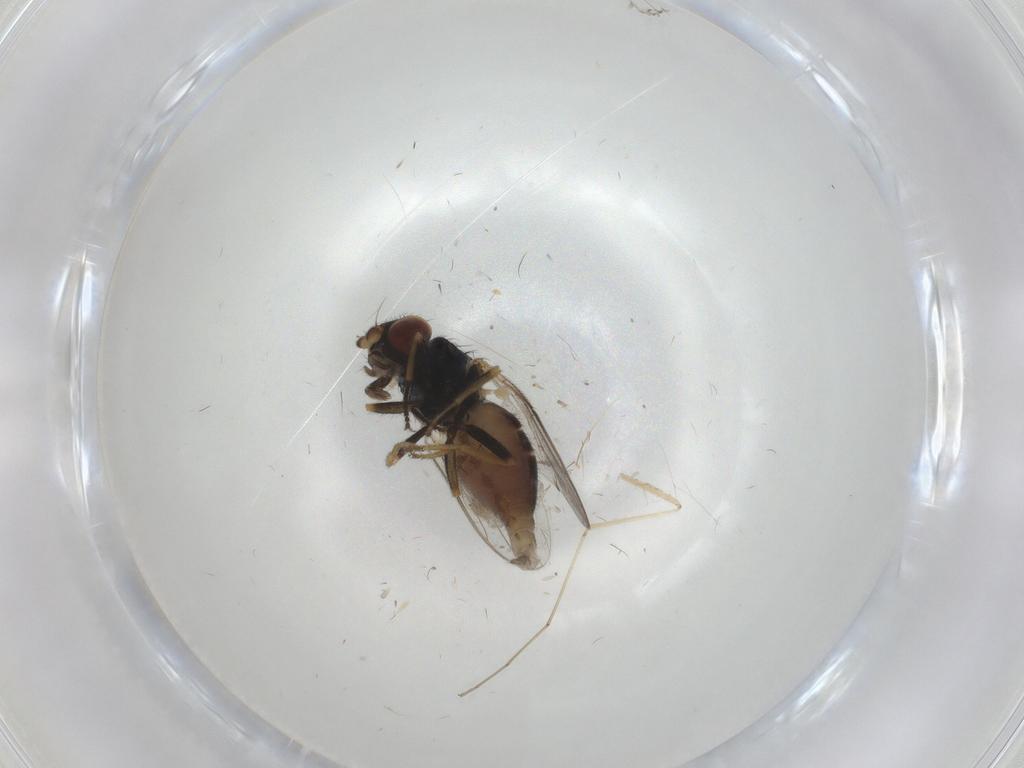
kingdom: Animalia
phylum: Arthropoda
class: Insecta
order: Diptera
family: Chloropidae
